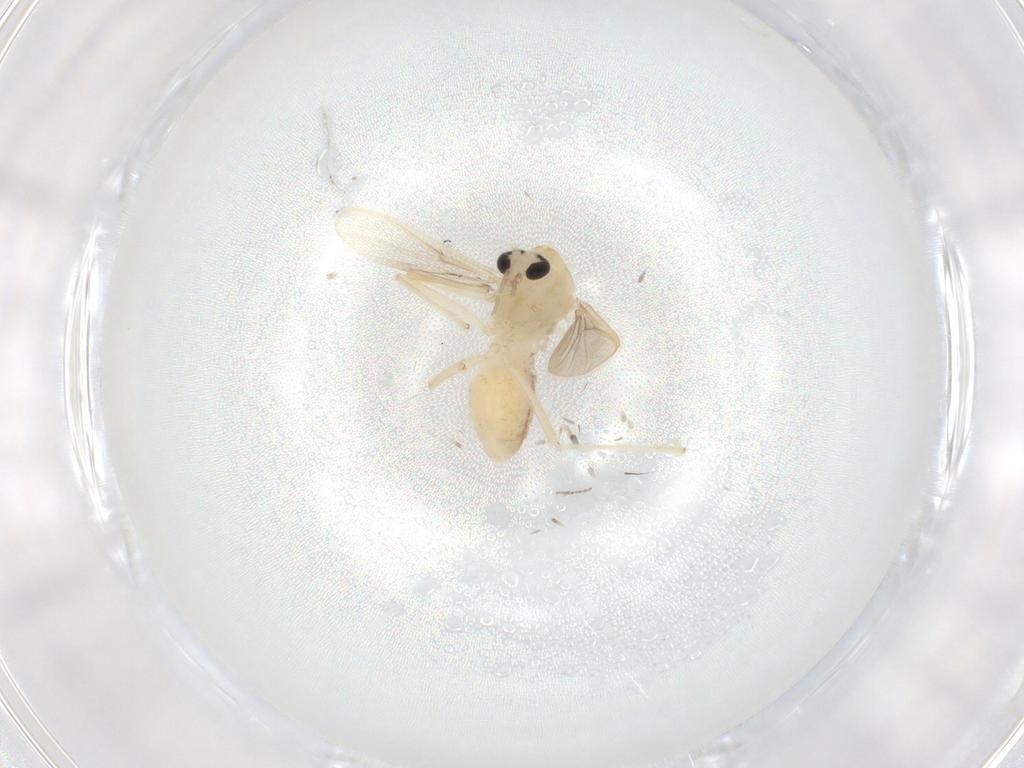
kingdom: Animalia
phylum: Arthropoda
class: Insecta
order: Diptera
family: Chironomidae
